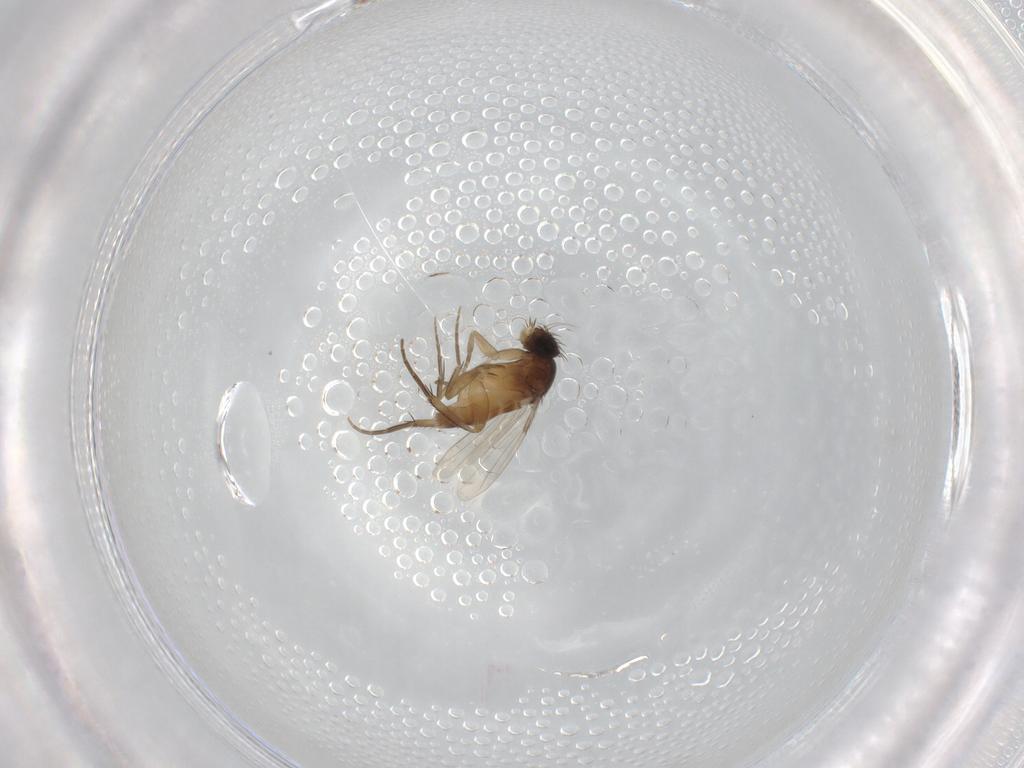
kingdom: Animalia
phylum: Arthropoda
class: Insecta
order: Diptera
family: Phoridae
